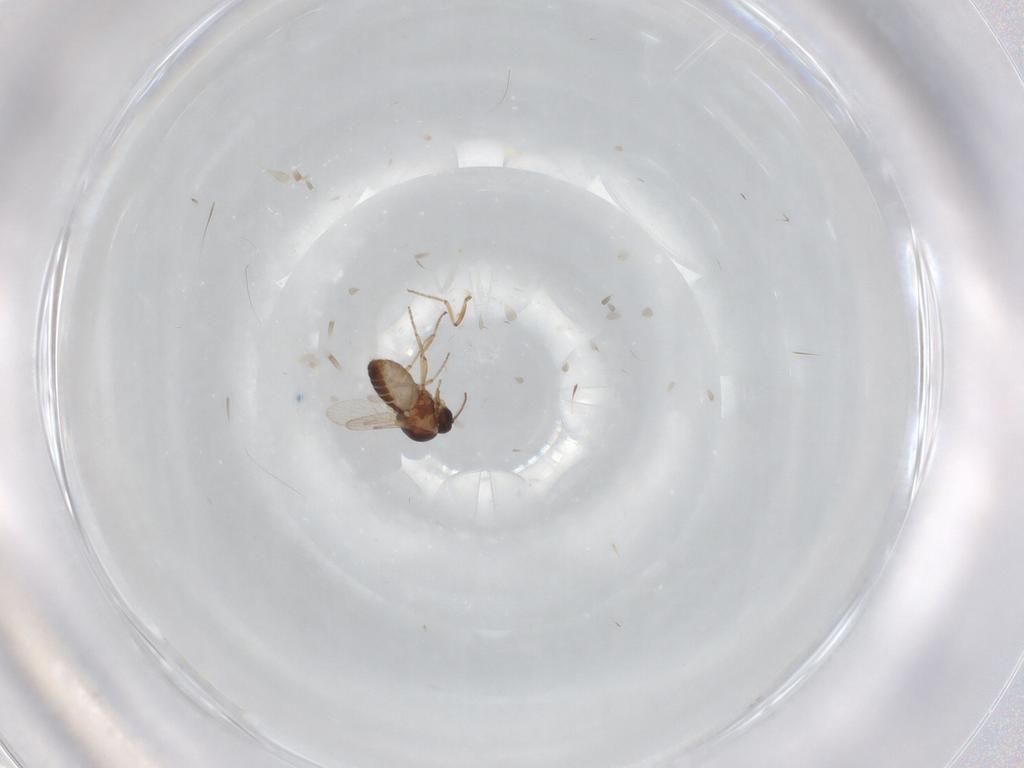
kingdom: Animalia
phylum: Arthropoda
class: Insecta
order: Diptera
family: Ceratopogonidae
